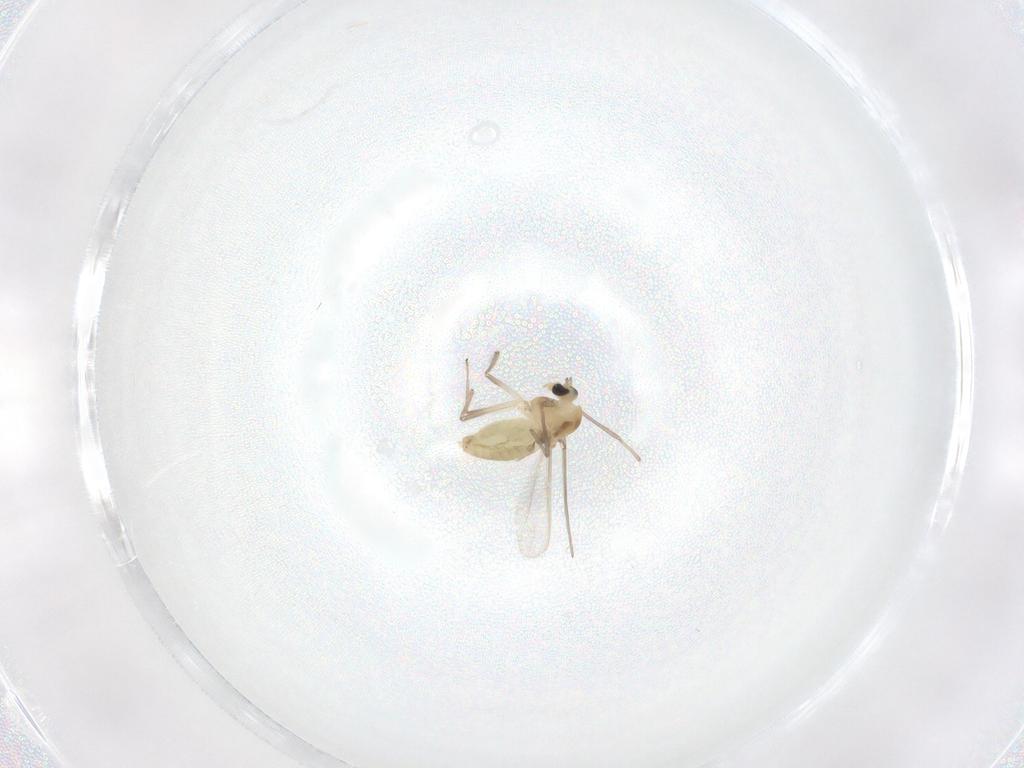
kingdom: Animalia
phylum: Arthropoda
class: Insecta
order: Diptera
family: Chironomidae
